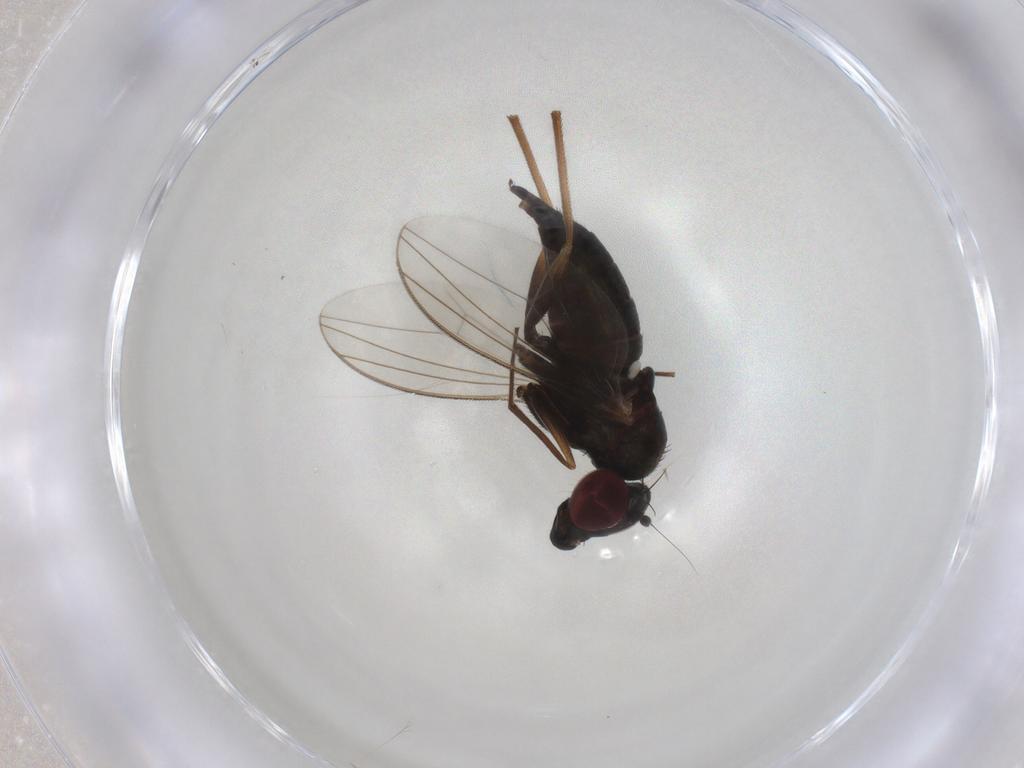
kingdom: Animalia
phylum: Arthropoda
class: Insecta
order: Diptera
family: Dolichopodidae
